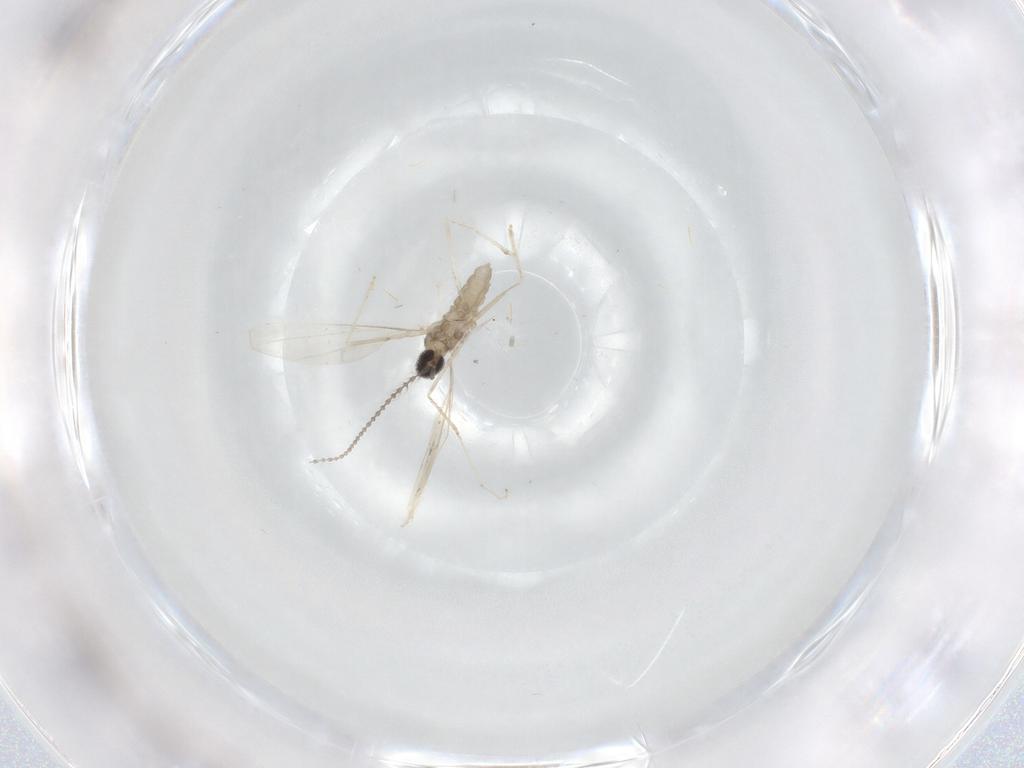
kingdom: Animalia
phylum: Arthropoda
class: Insecta
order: Diptera
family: Cecidomyiidae
